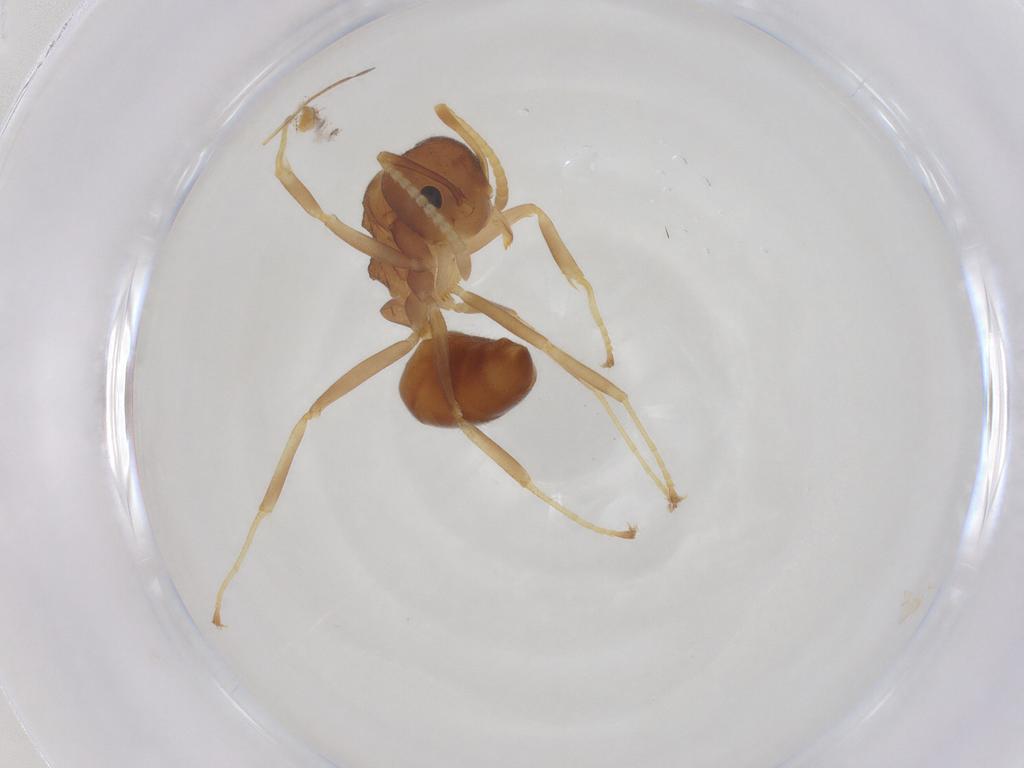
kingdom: Animalia
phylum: Arthropoda
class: Insecta
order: Hymenoptera
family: Formicidae
